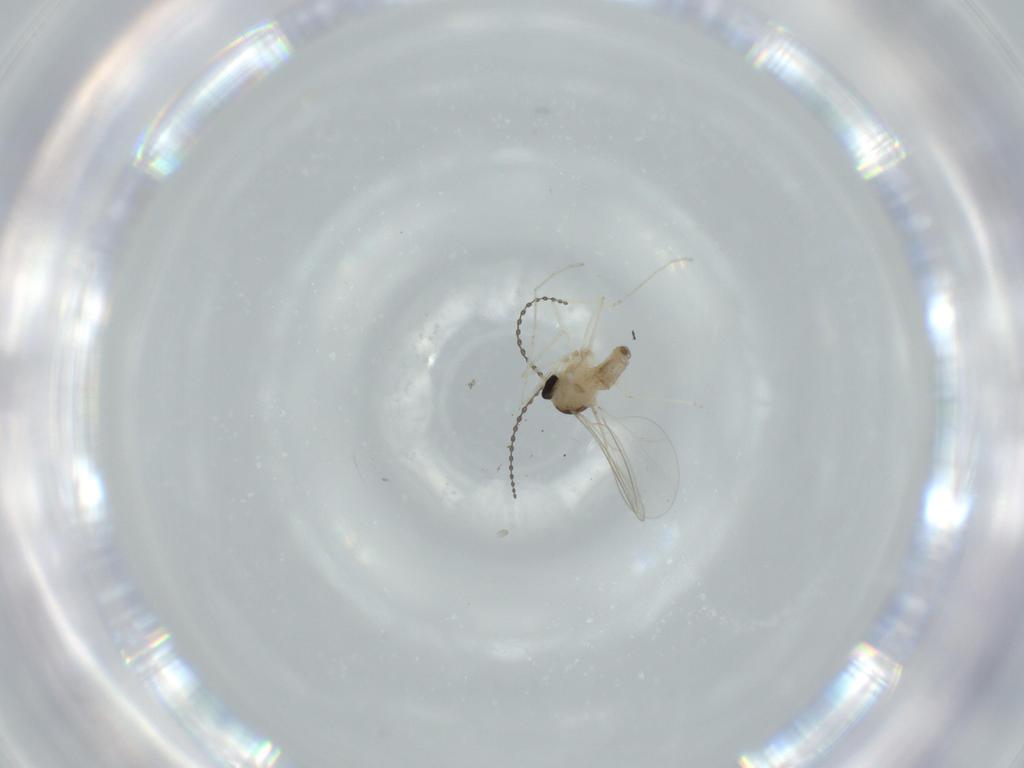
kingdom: Animalia
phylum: Arthropoda
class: Insecta
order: Diptera
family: Cecidomyiidae
